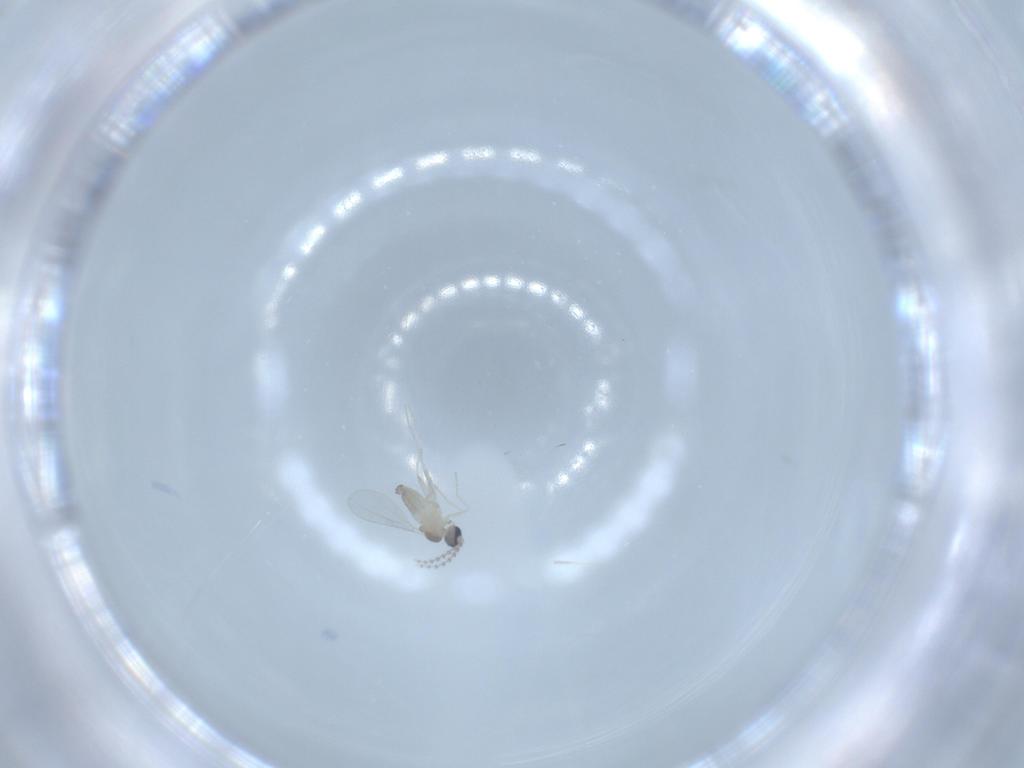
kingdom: Animalia
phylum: Arthropoda
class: Insecta
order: Diptera
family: Cecidomyiidae
